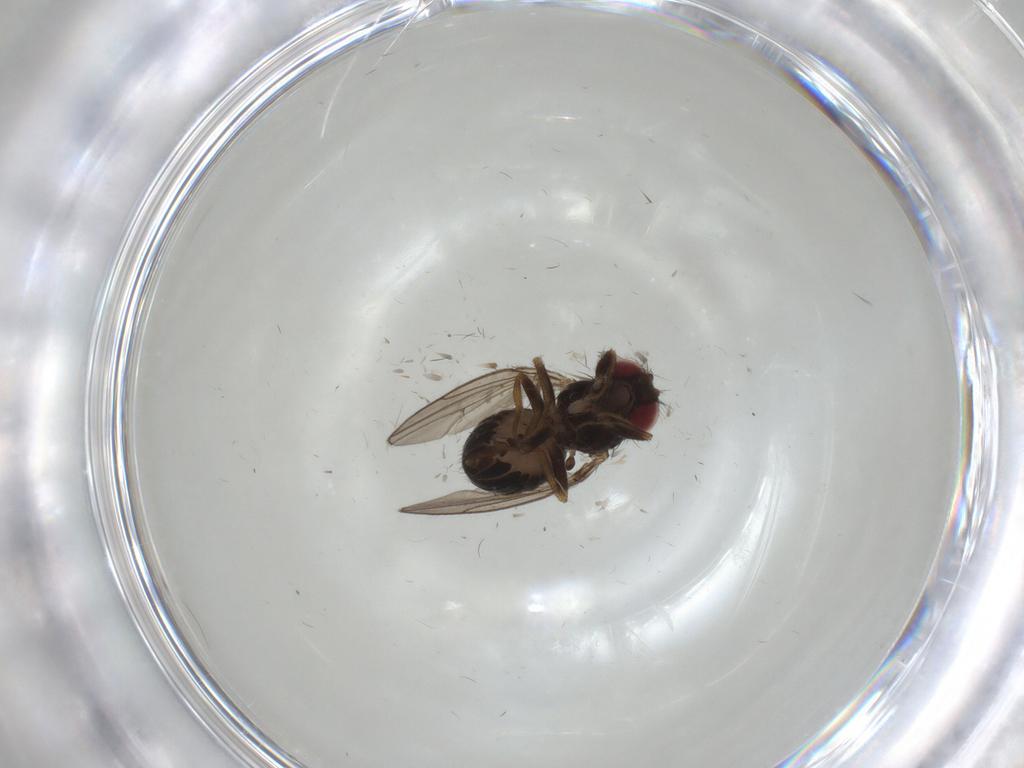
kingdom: Animalia
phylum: Arthropoda
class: Insecta
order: Diptera
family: Drosophilidae
